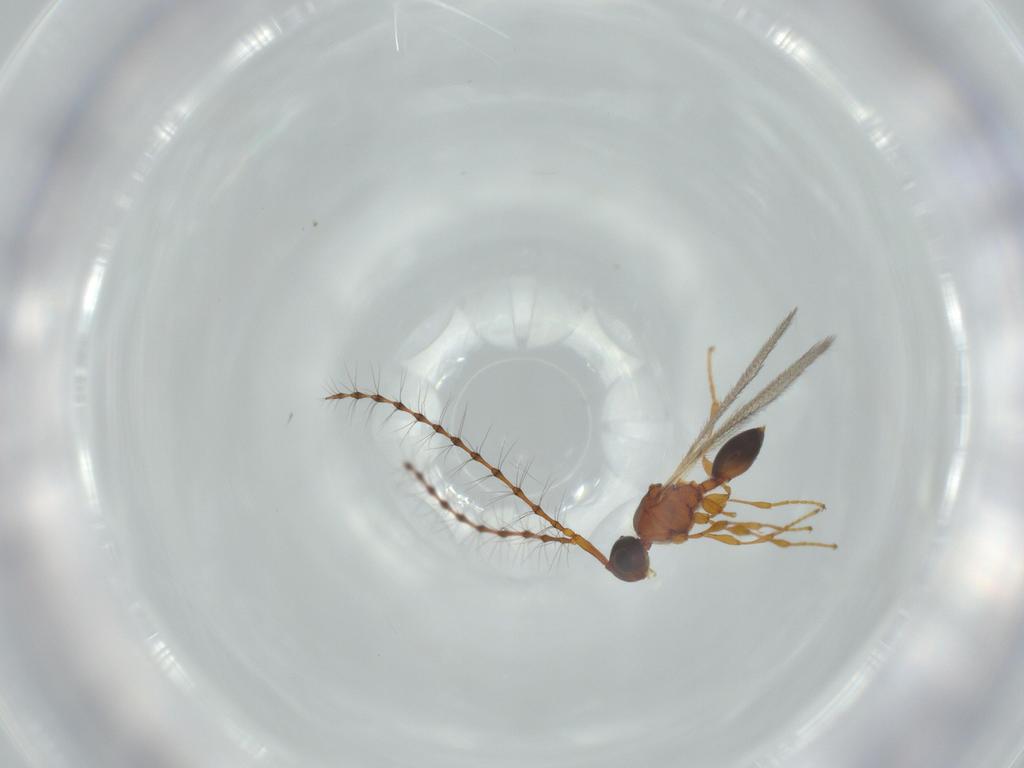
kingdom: Animalia
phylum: Arthropoda
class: Insecta
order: Hymenoptera
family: Diapriidae
